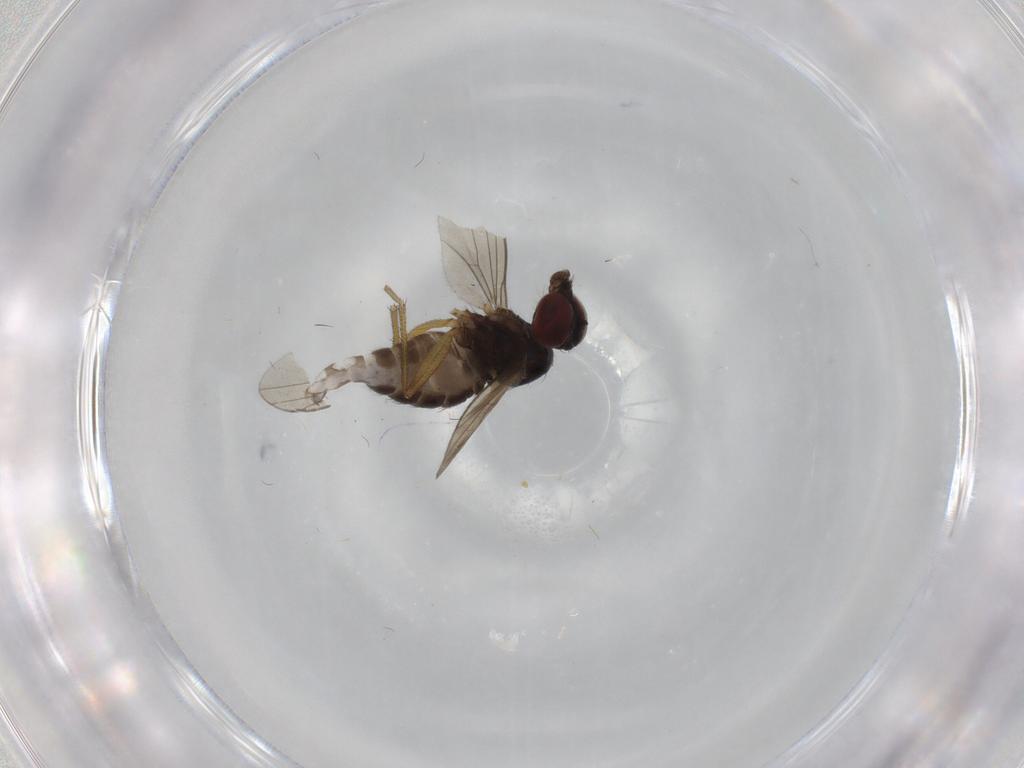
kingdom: Animalia
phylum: Arthropoda
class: Insecta
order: Diptera
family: Dolichopodidae
